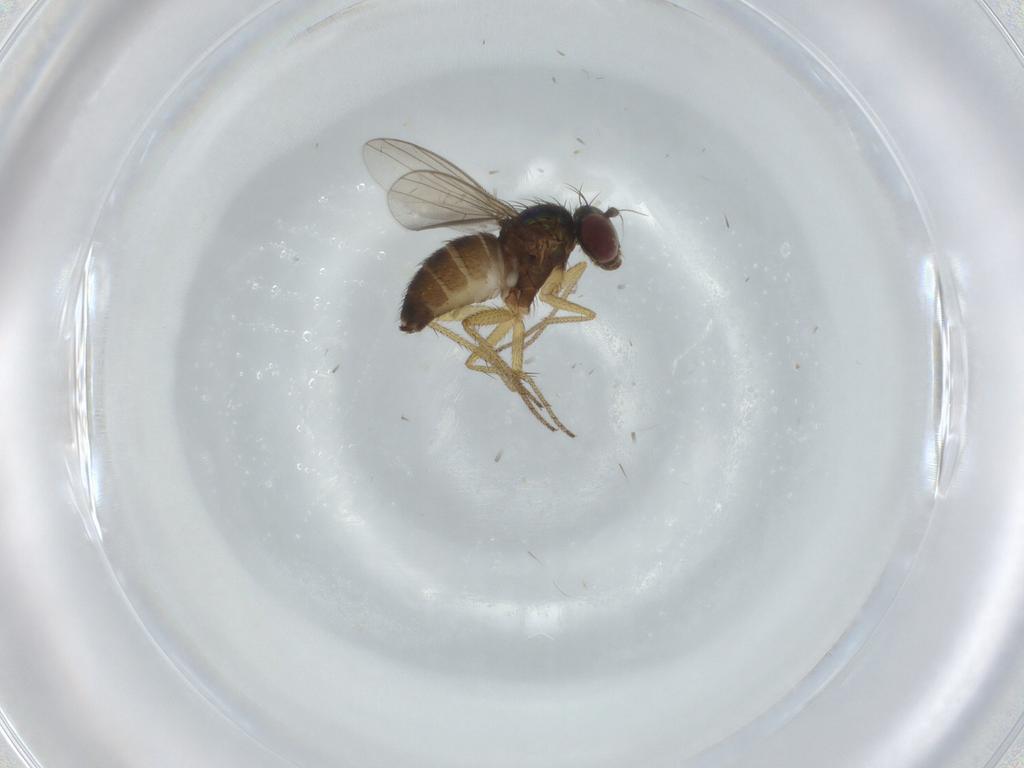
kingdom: Animalia
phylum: Arthropoda
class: Insecta
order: Diptera
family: Dolichopodidae
